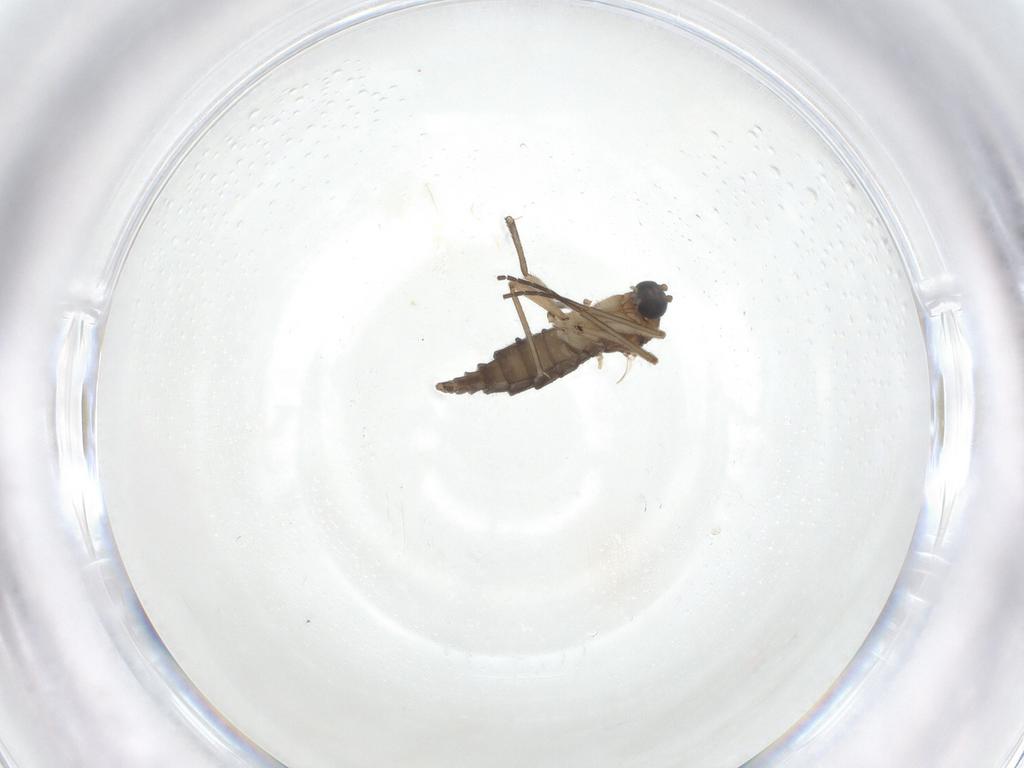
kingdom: Animalia
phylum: Arthropoda
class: Insecta
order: Diptera
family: Sciaridae
